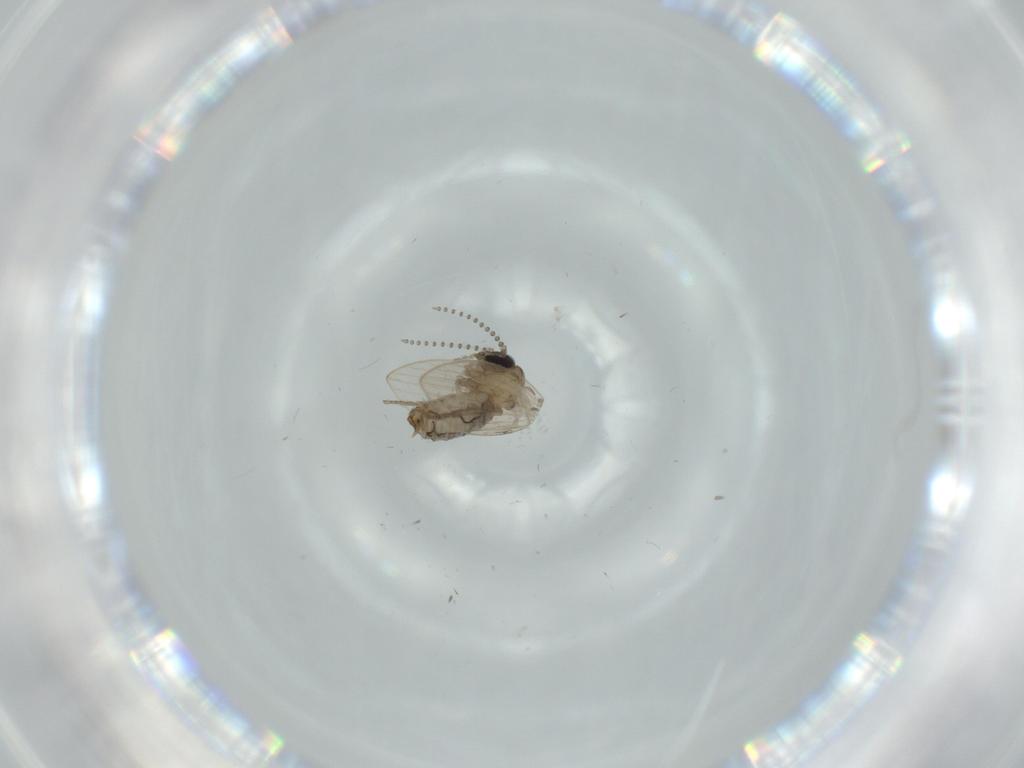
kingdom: Animalia
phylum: Arthropoda
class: Insecta
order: Diptera
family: Psychodidae
